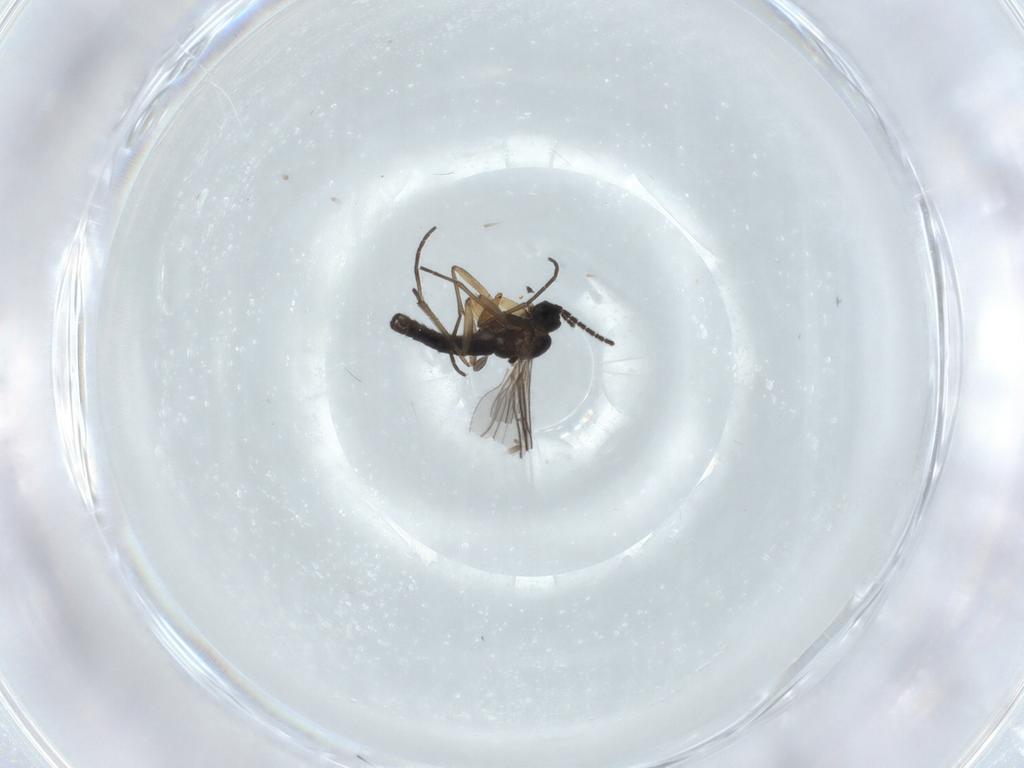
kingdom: Animalia
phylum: Arthropoda
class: Insecta
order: Diptera
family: Sciaridae
